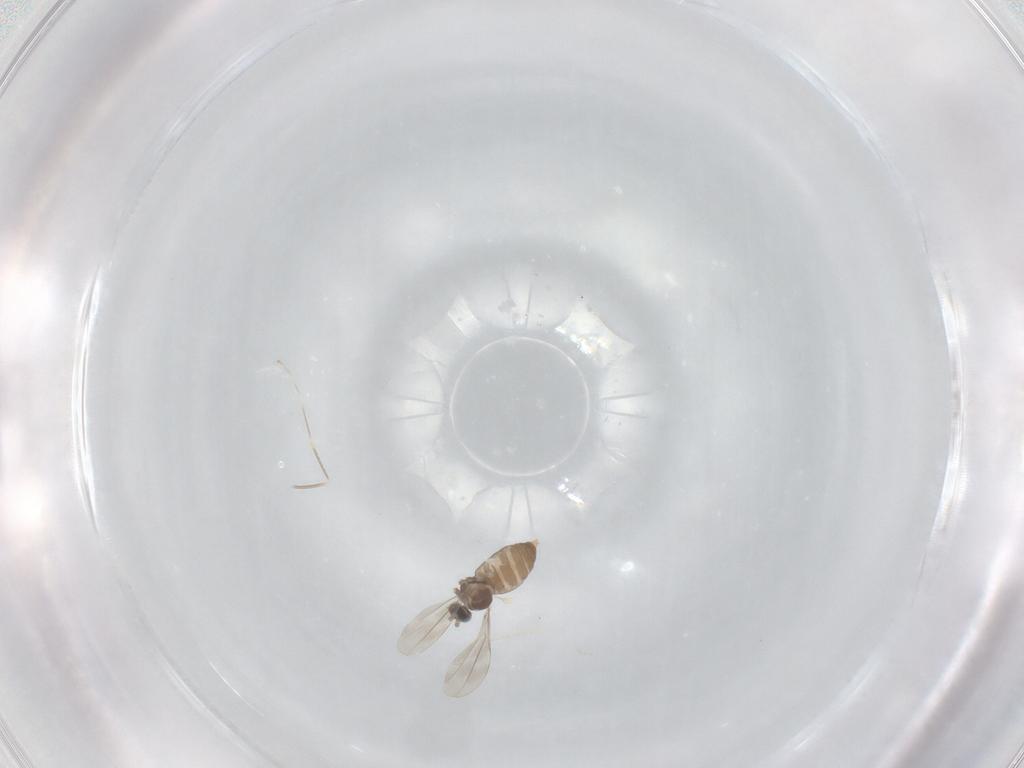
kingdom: Animalia
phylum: Arthropoda
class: Insecta
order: Diptera
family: Cecidomyiidae
